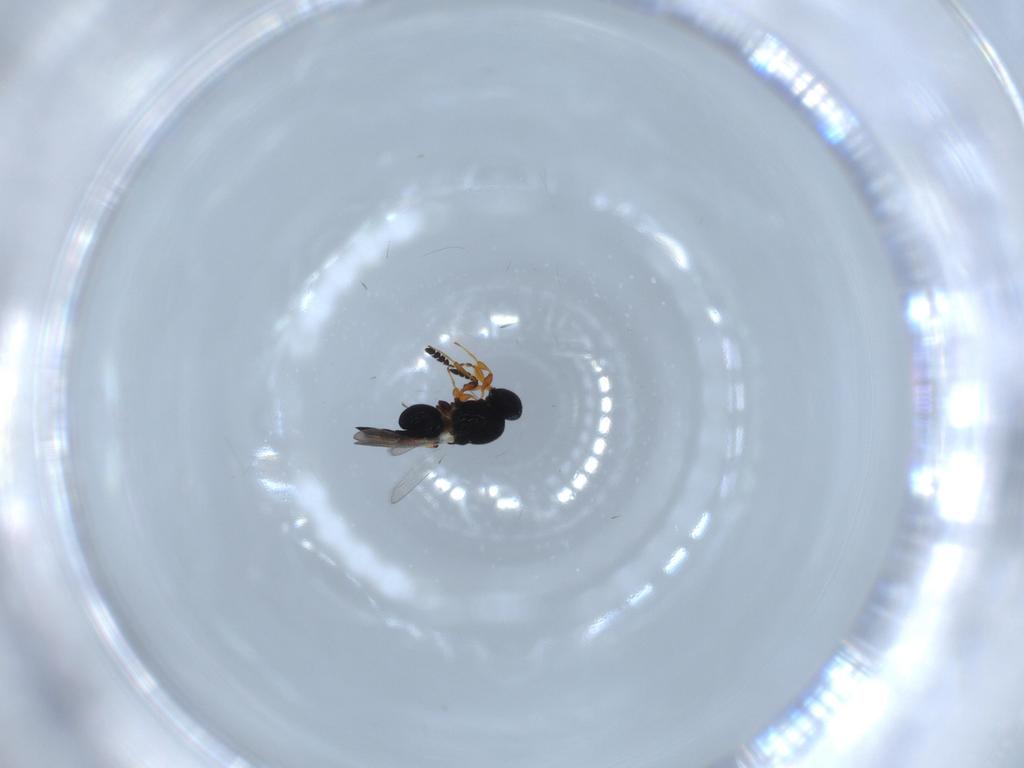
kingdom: Animalia
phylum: Arthropoda
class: Insecta
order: Hymenoptera
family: Platygastridae
